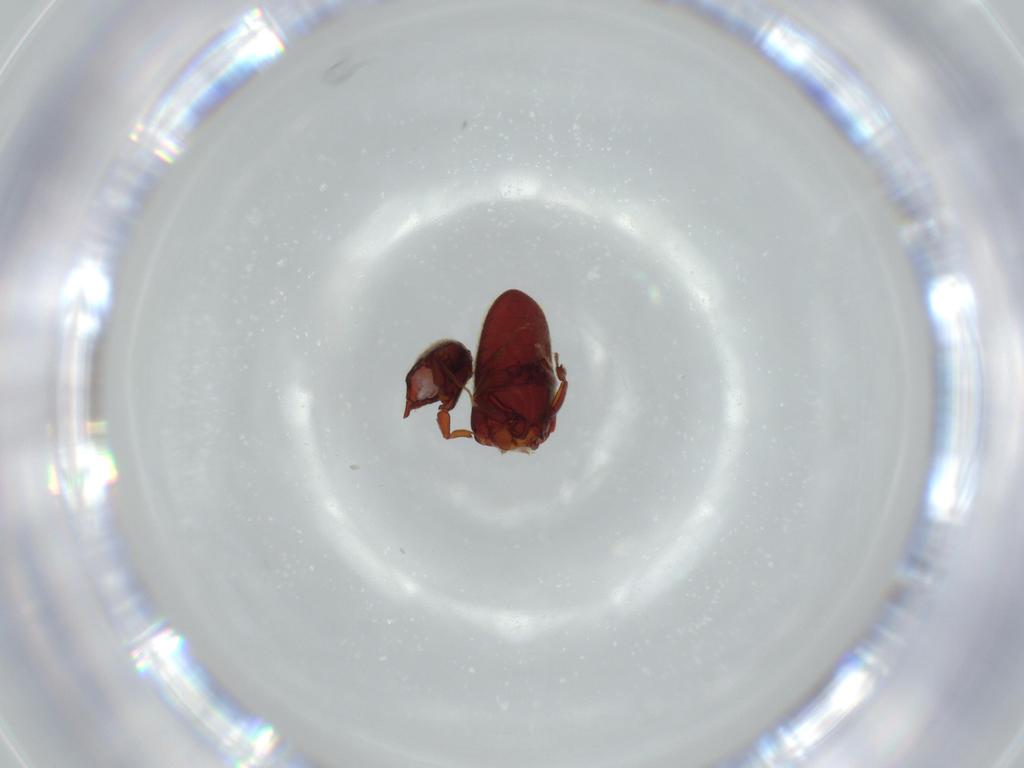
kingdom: Animalia
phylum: Arthropoda
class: Insecta
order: Coleoptera
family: Throscidae
